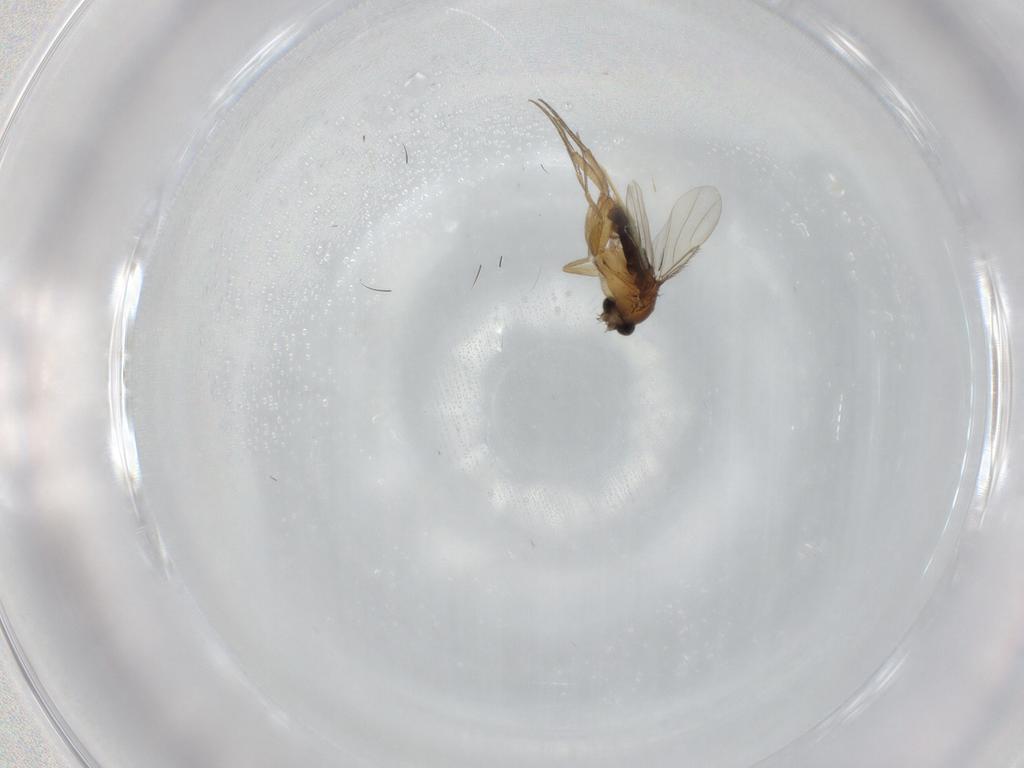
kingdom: Animalia
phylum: Arthropoda
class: Insecta
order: Diptera
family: Phoridae
